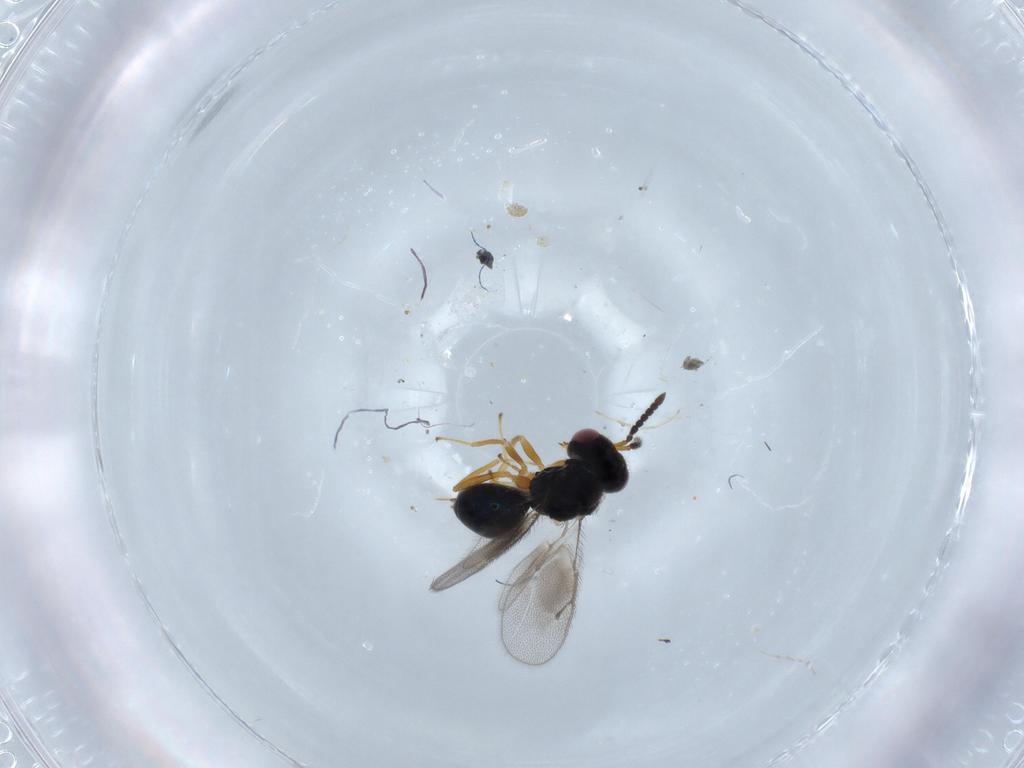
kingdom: Animalia
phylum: Arthropoda
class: Insecta
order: Hymenoptera
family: Pteromalidae
